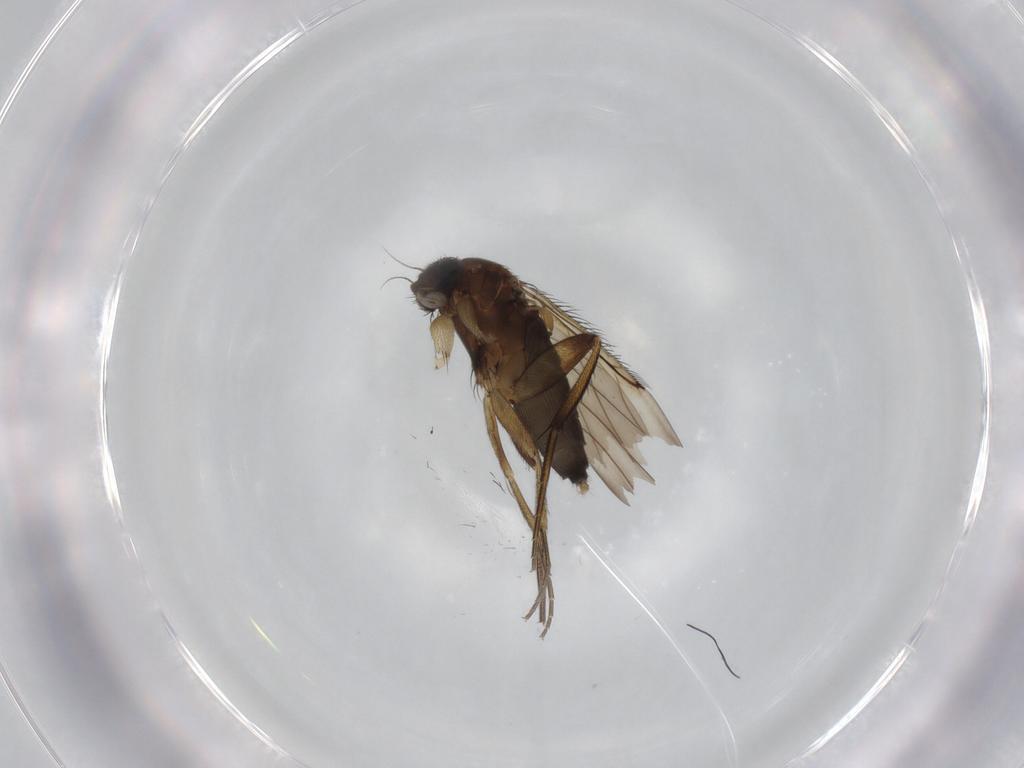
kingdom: Animalia
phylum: Arthropoda
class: Insecta
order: Diptera
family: Phoridae
